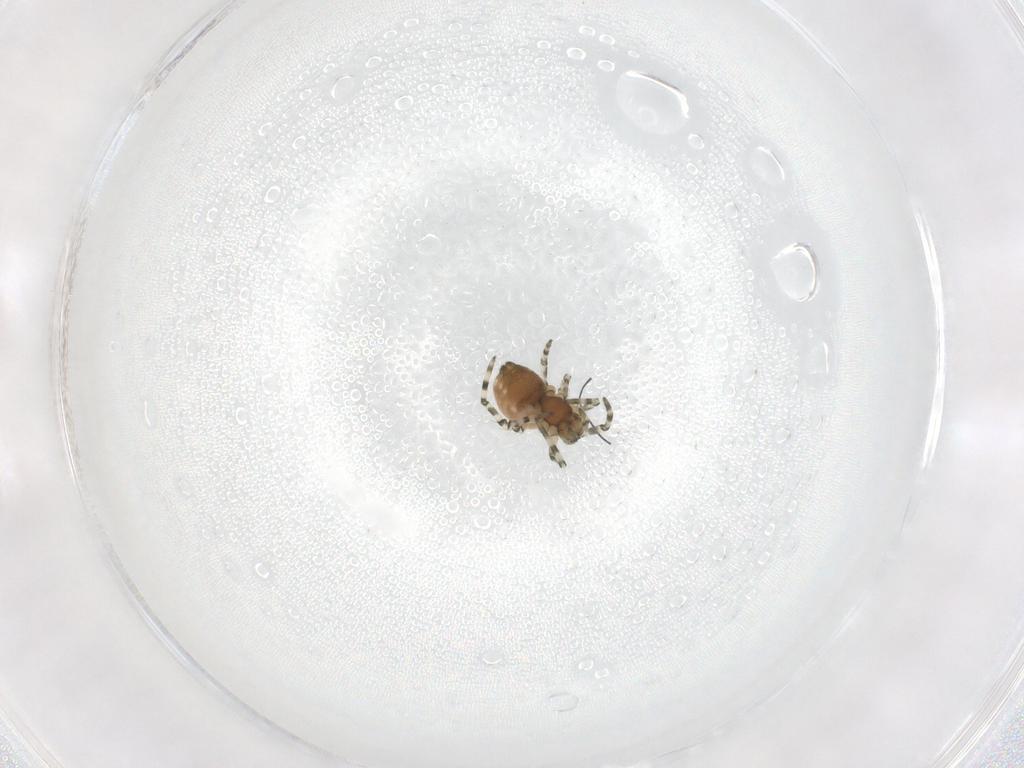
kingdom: Animalia
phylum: Arthropoda
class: Arachnida
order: Araneae
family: Linyphiidae
